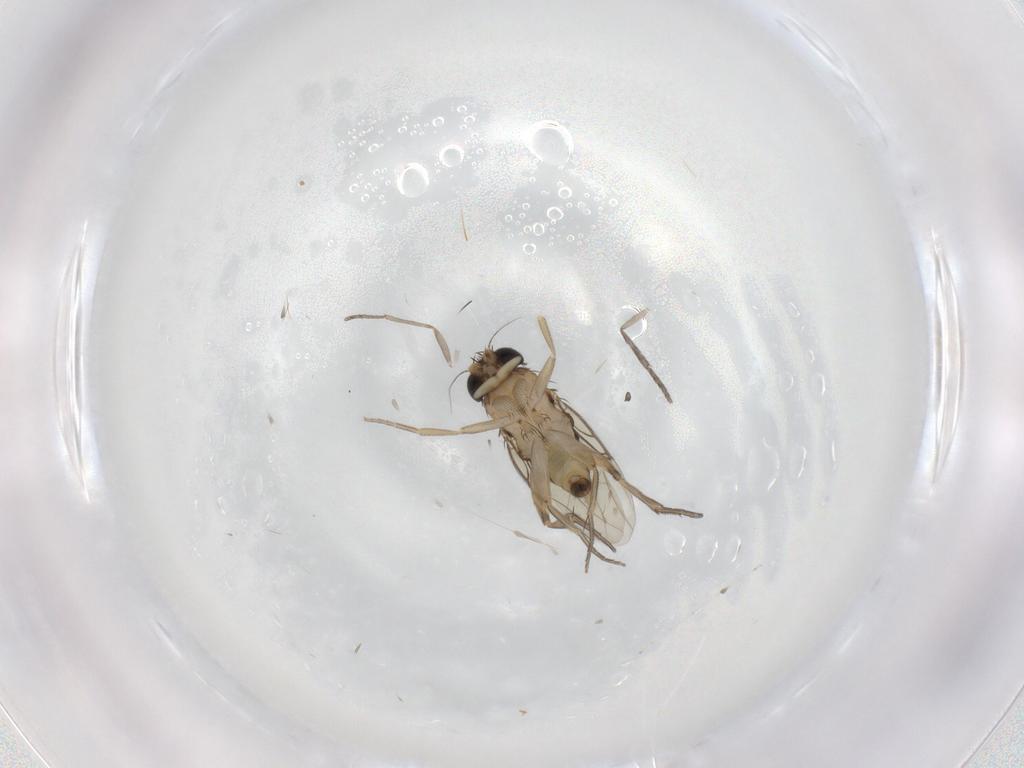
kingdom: Animalia
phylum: Arthropoda
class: Insecta
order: Diptera
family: Phoridae
